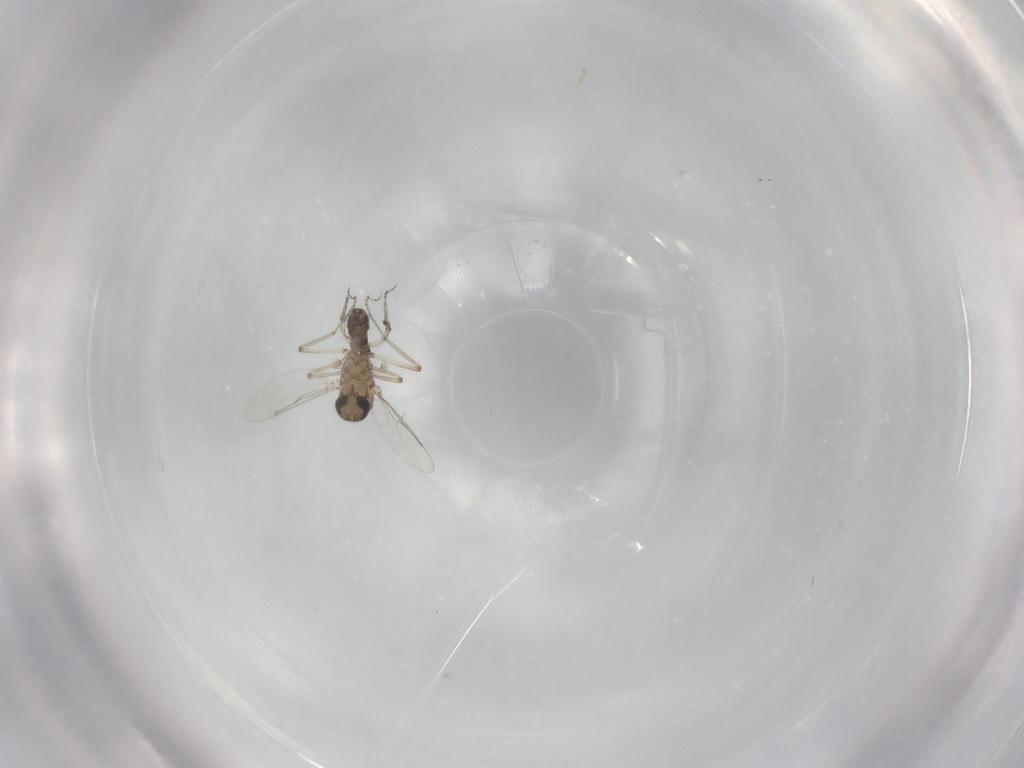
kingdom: Animalia
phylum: Arthropoda
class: Insecta
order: Diptera
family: Ceratopogonidae
